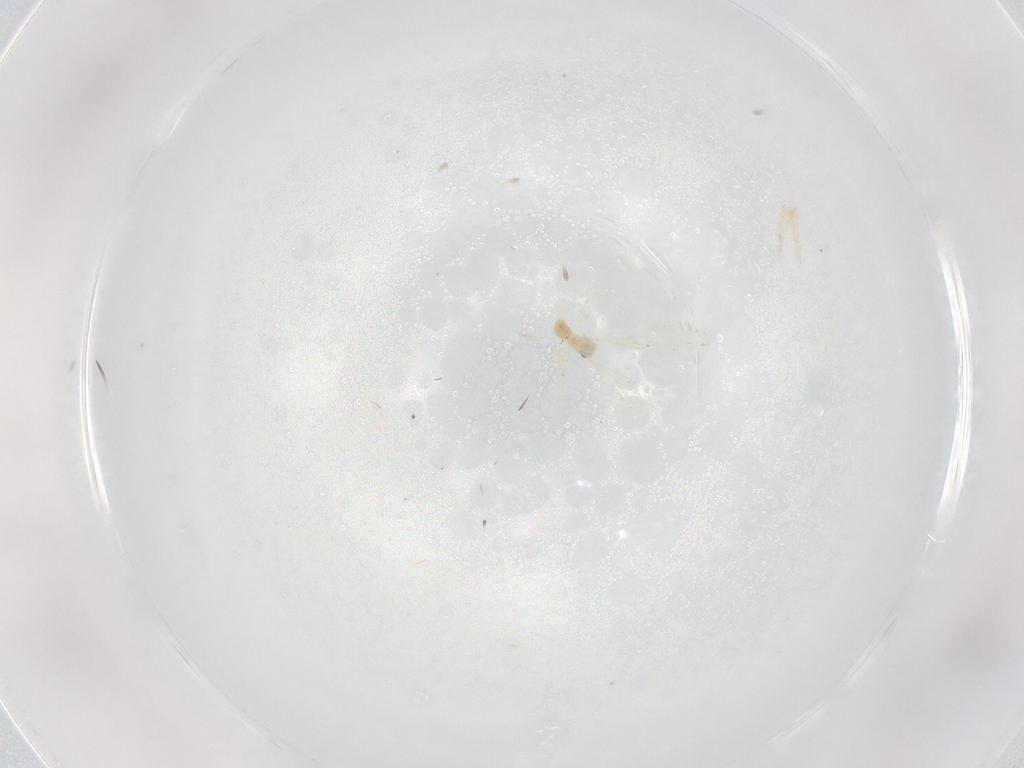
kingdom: Animalia
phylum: Arthropoda
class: Insecta
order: Diptera
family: Cecidomyiidae
